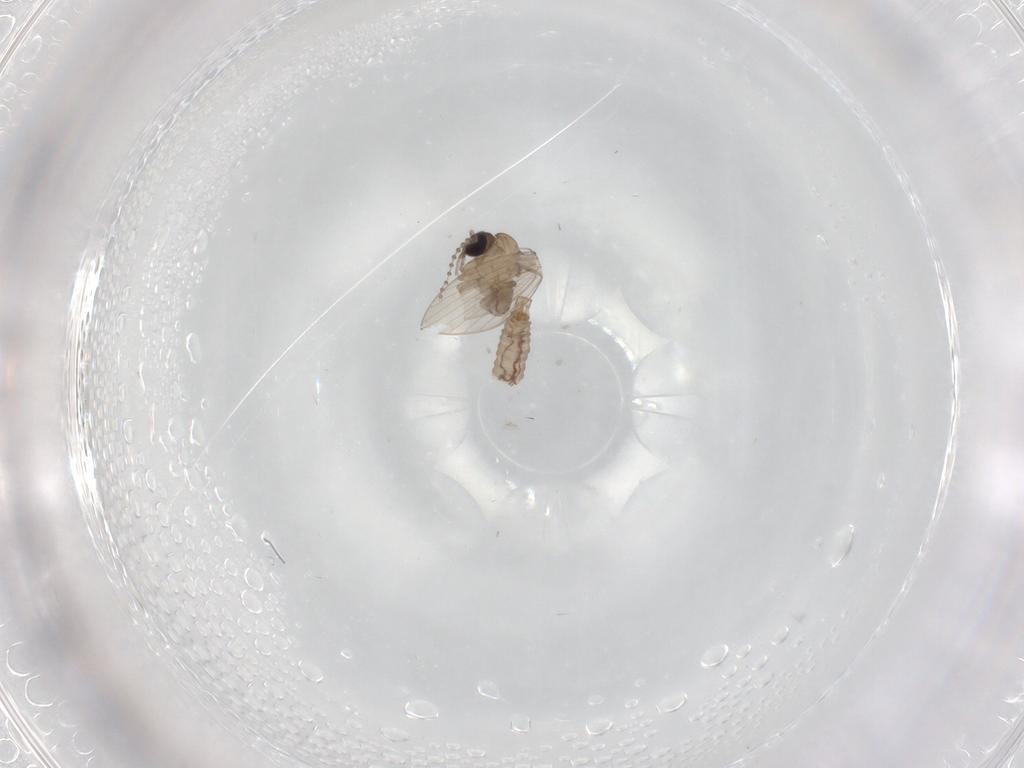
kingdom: Animalia
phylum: Arthropoda
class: Insecta
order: Diptera
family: Psychodidae
